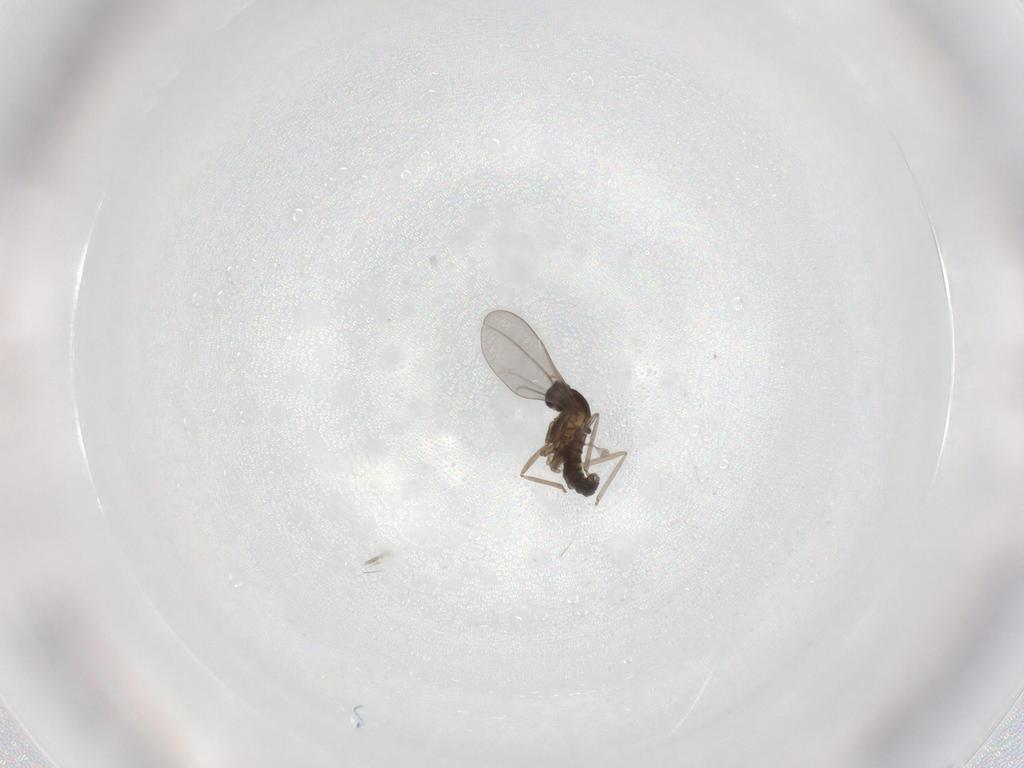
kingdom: Animalia
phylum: Arthropoda
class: Insecta
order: Diptera
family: Cecidomyiidae
